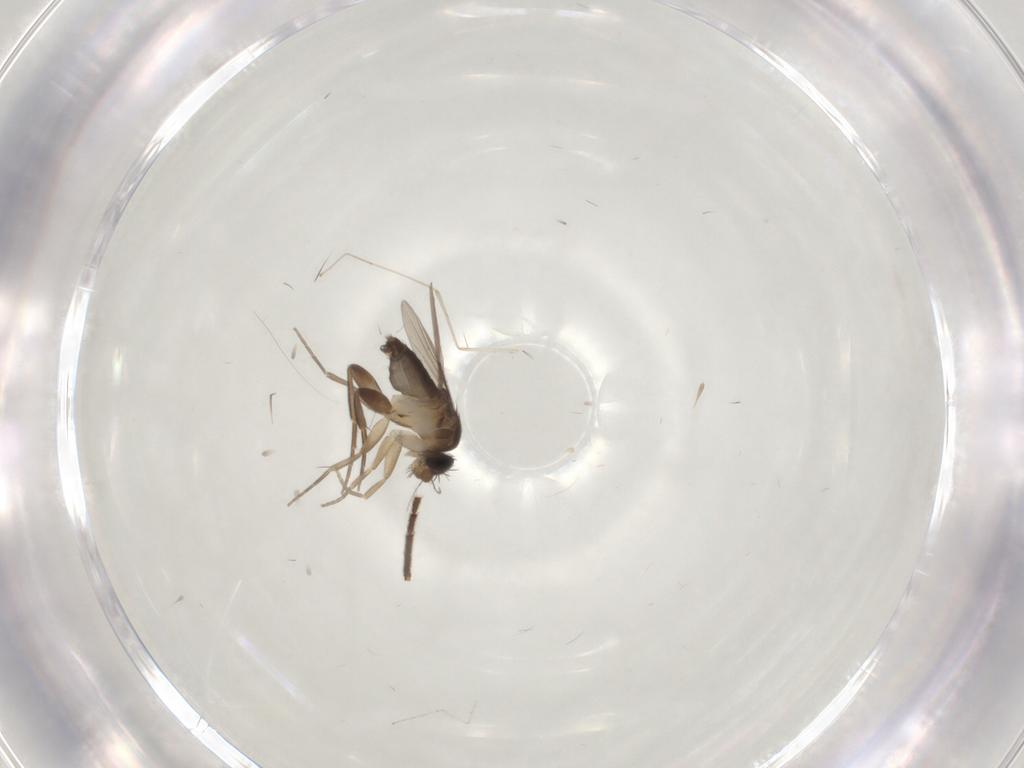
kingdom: Animalia
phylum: Arthropoda
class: Insecta
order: Diptera
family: Phoridae
